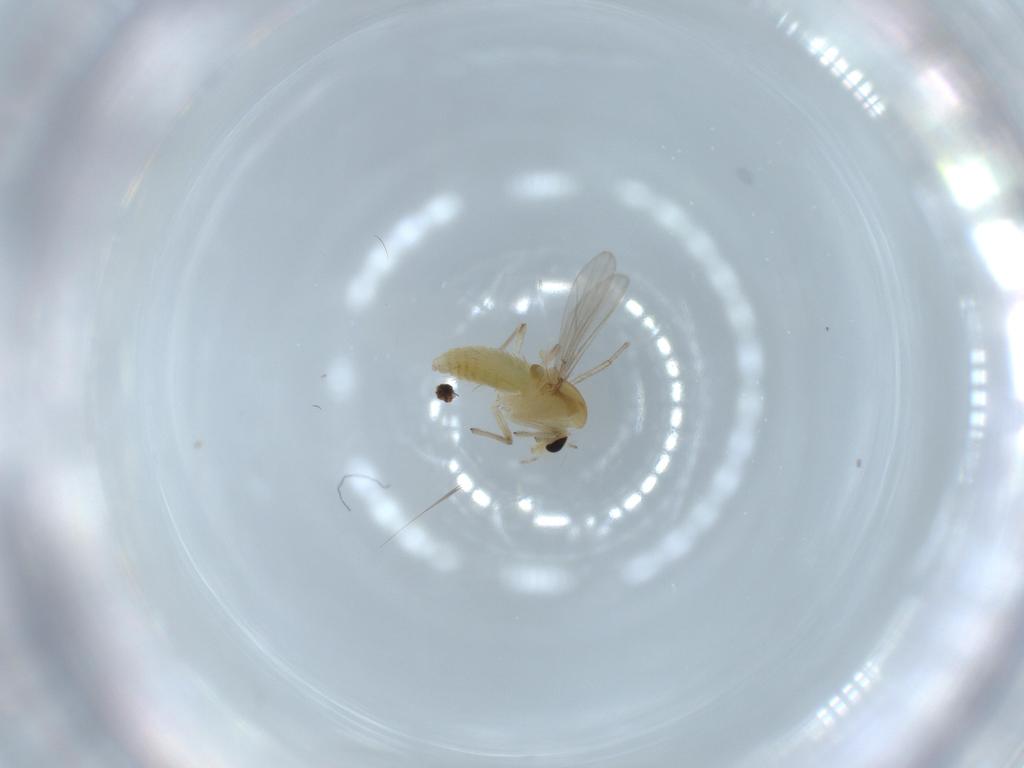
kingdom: Animalia
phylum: Arthropoda
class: Insecta
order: Diptera
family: Chironomidae
